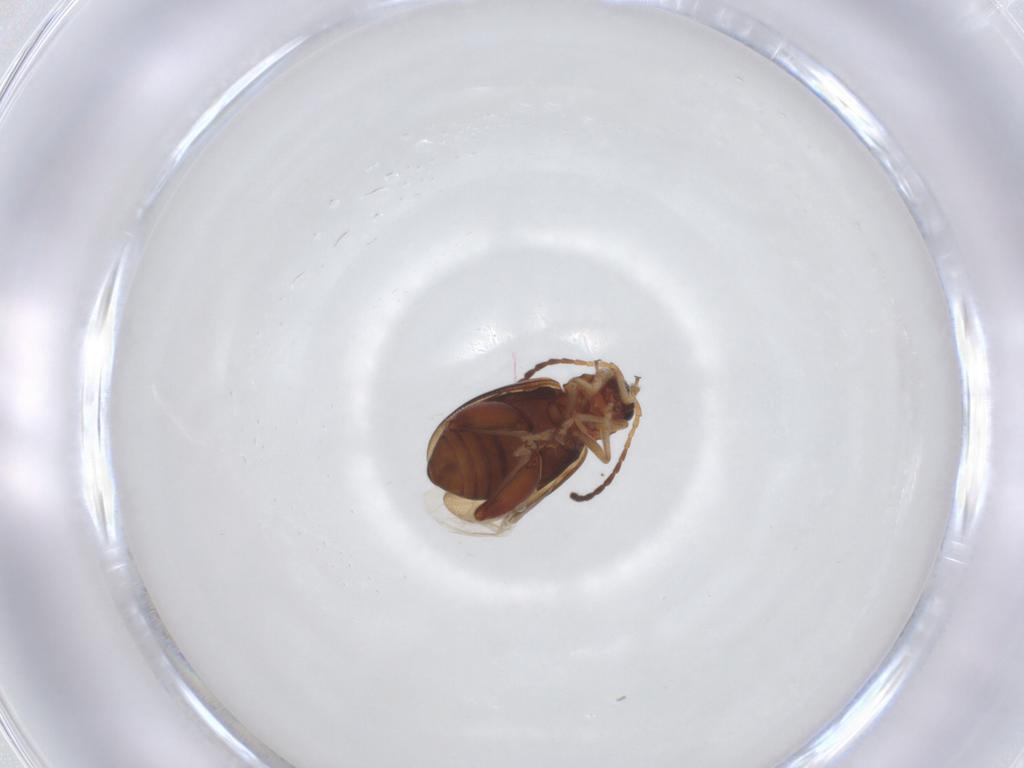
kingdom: Animalia
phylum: Arthropoda
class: Insecta
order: Coleoptera
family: Chrysomelidae
